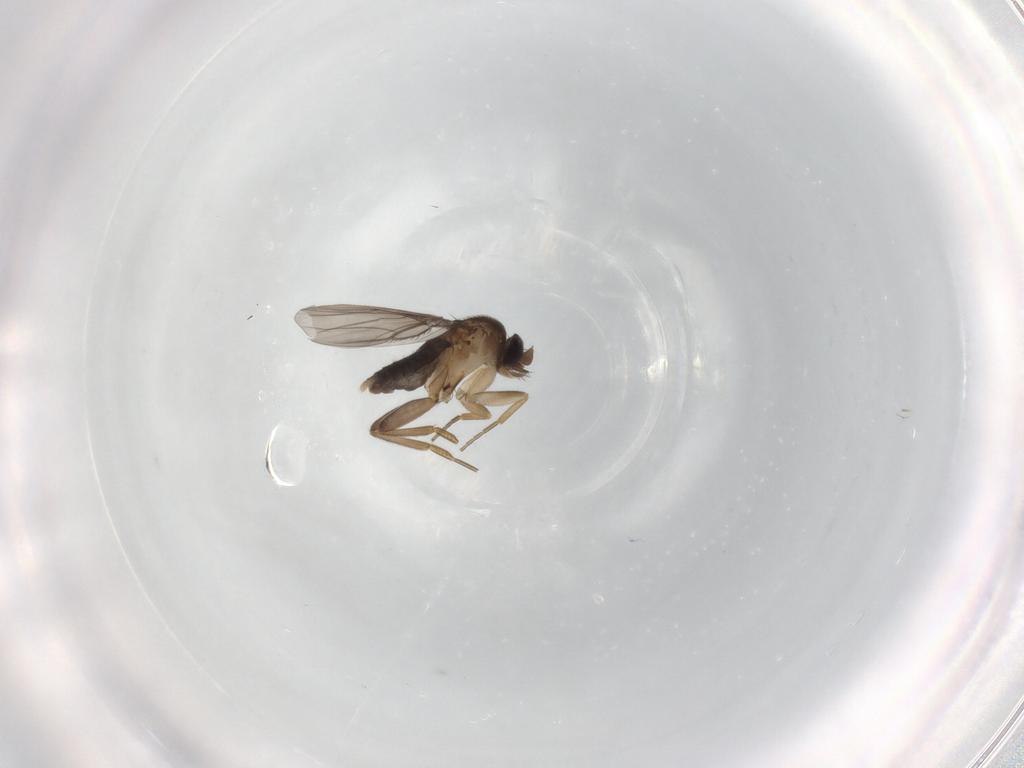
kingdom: Animalia
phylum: Arthropoda
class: Insecta
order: Diptera
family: Phoridae
